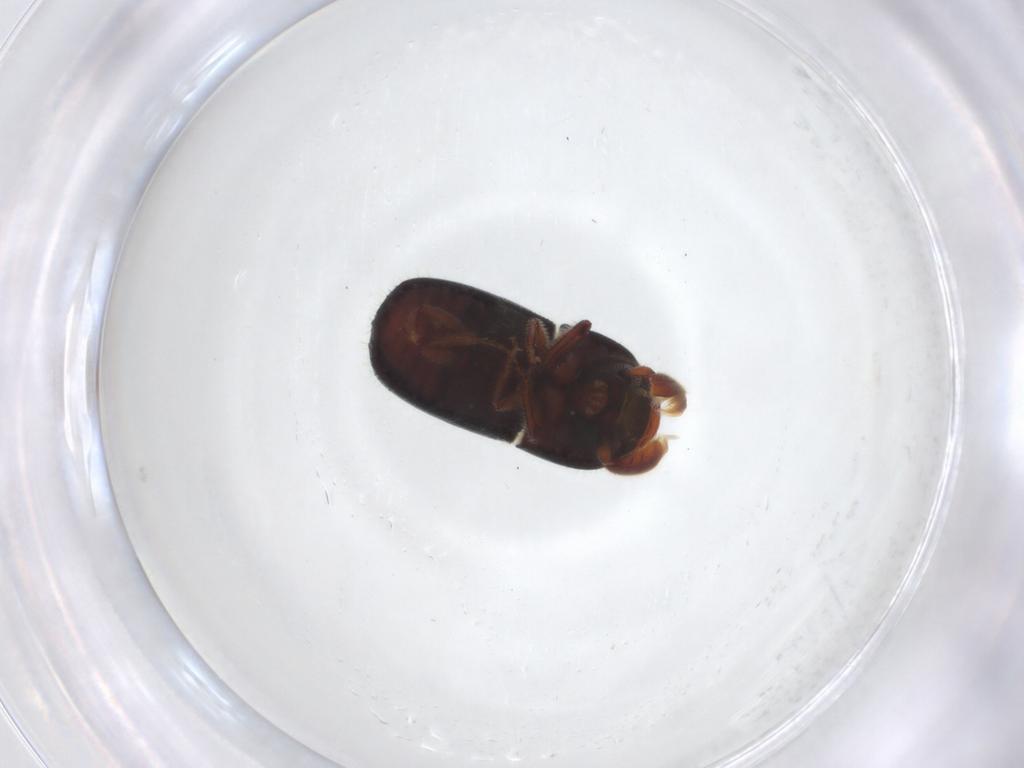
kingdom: Animalia
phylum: Arthropoda
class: Insecta
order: Coleoptera
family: Curculionidae
